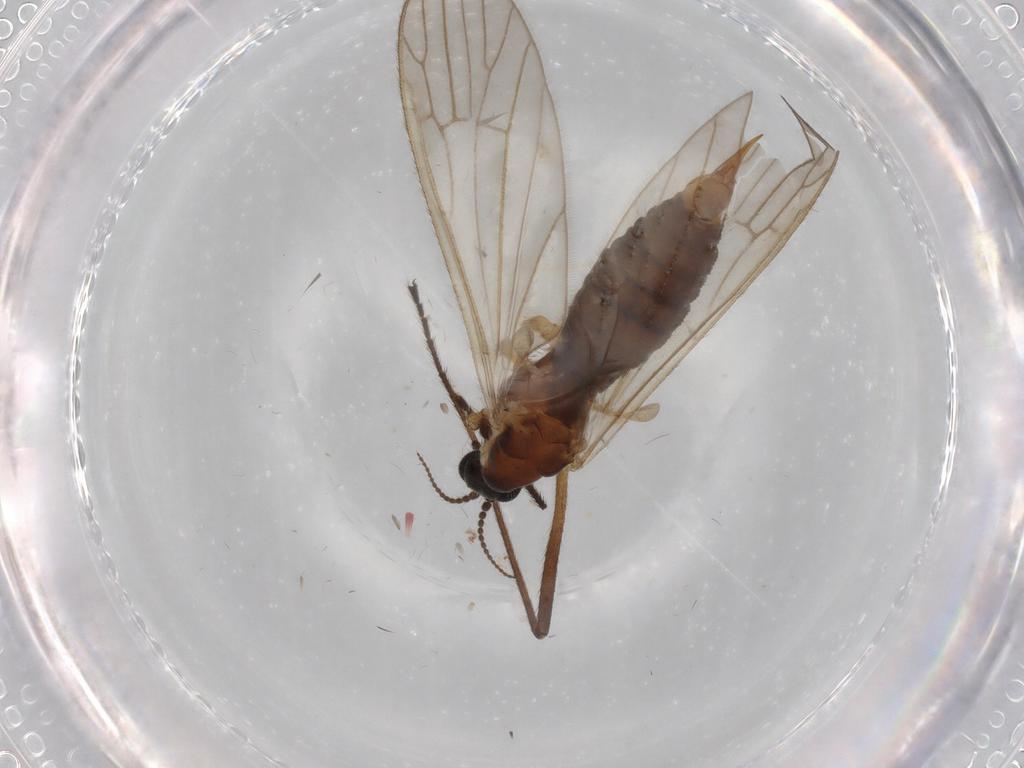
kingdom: Animalia
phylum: Arthropoda
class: Insecta
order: Diptera
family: Agromyzidae
